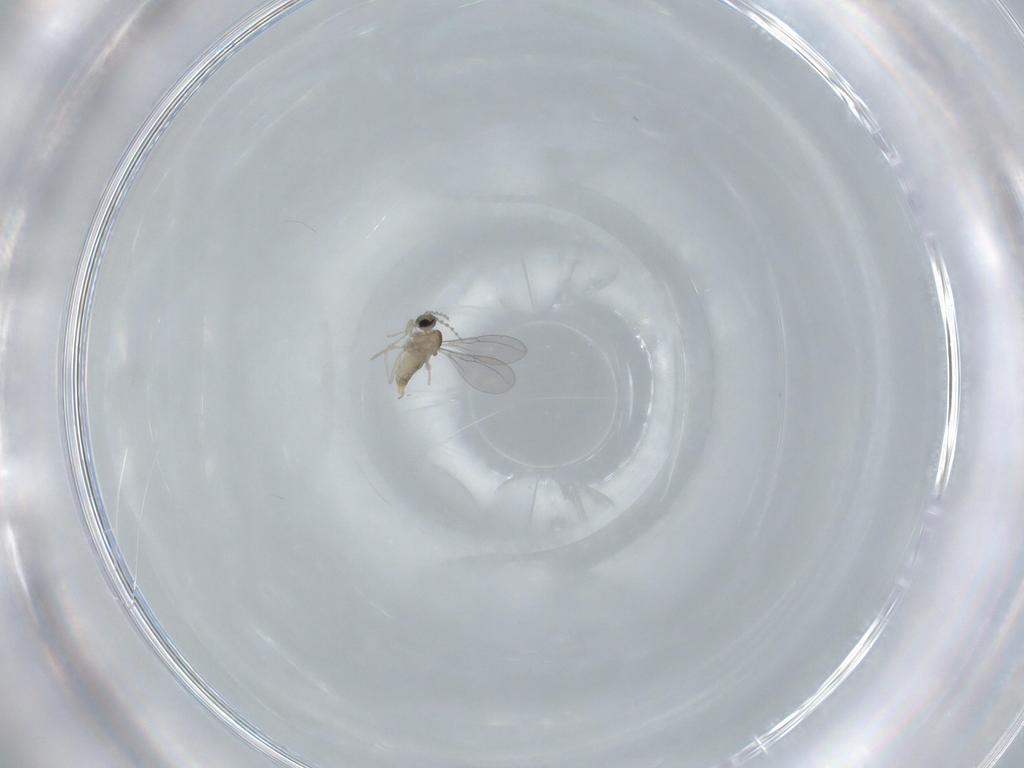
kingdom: Animalia
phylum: Arthropoda
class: Insecta
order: Diptera
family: Cecidomyiidae
